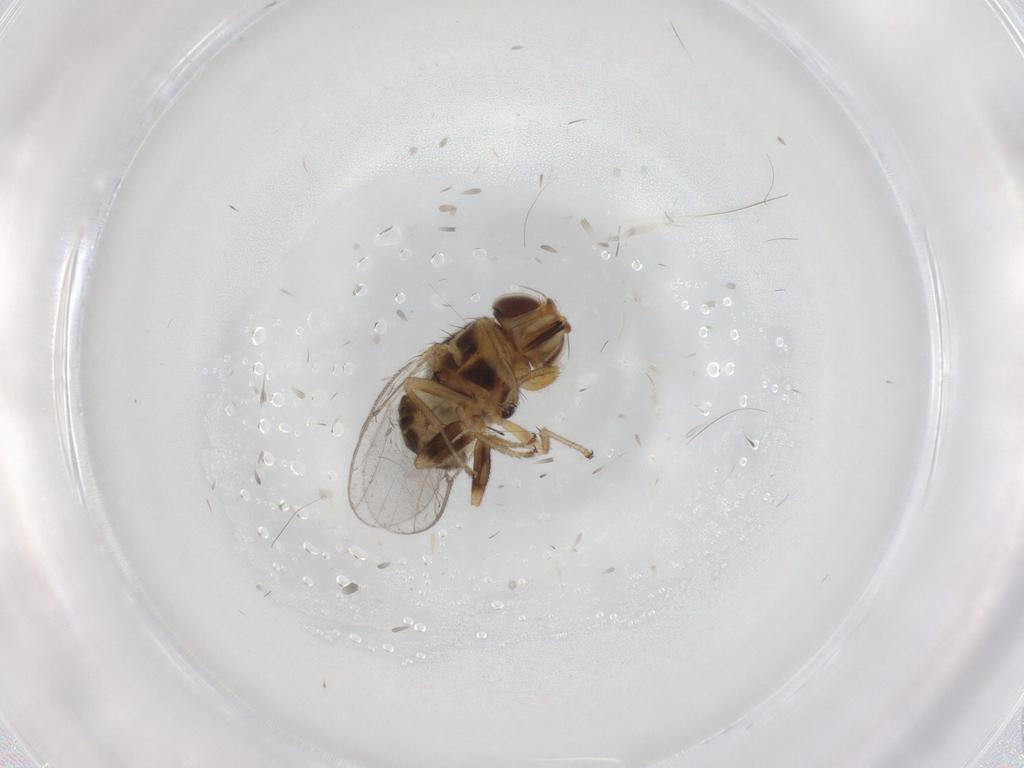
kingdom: Animalia
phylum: Arthropoda
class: Insecta
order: Diptera
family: Chloropidae
